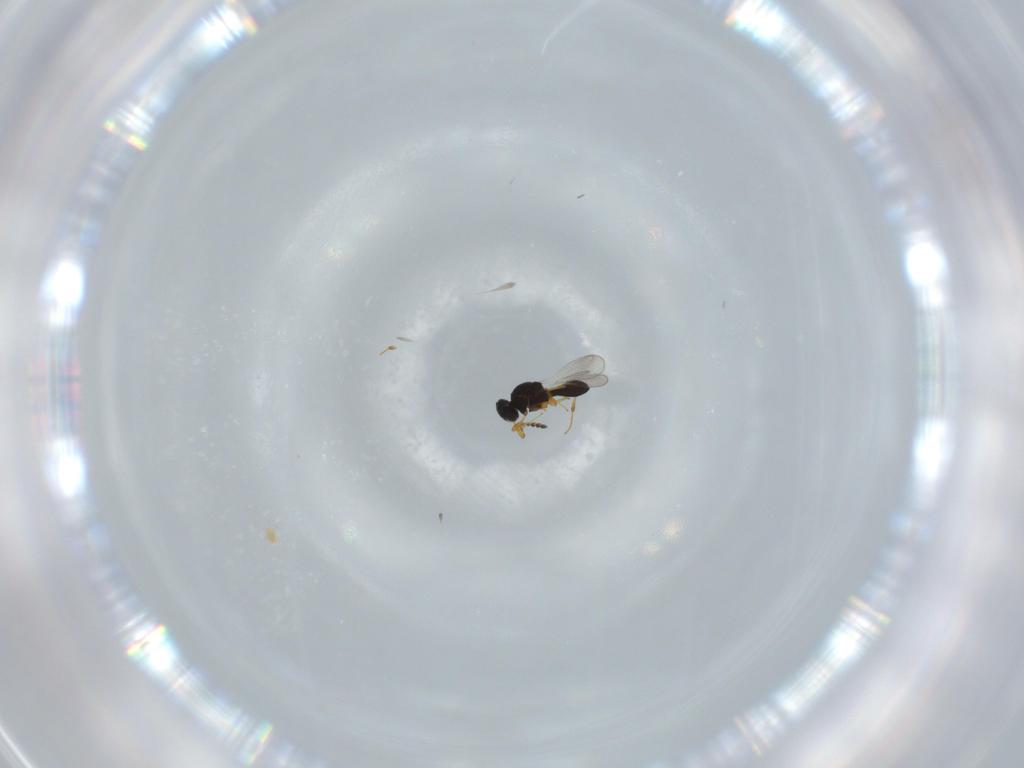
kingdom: Animalia
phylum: Arthropoda
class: Insecta
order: Hymenoptera
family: Platygastridae
